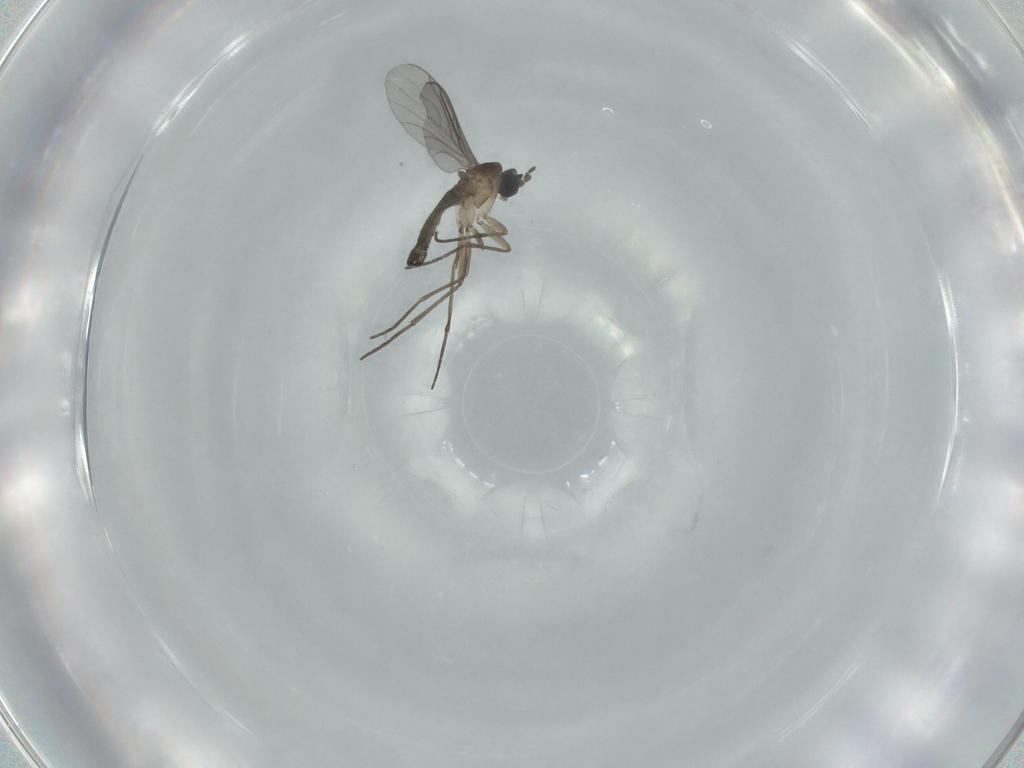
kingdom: Animalia
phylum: Arthropoda
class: Insecta
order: Diptera
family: Sciaridae
